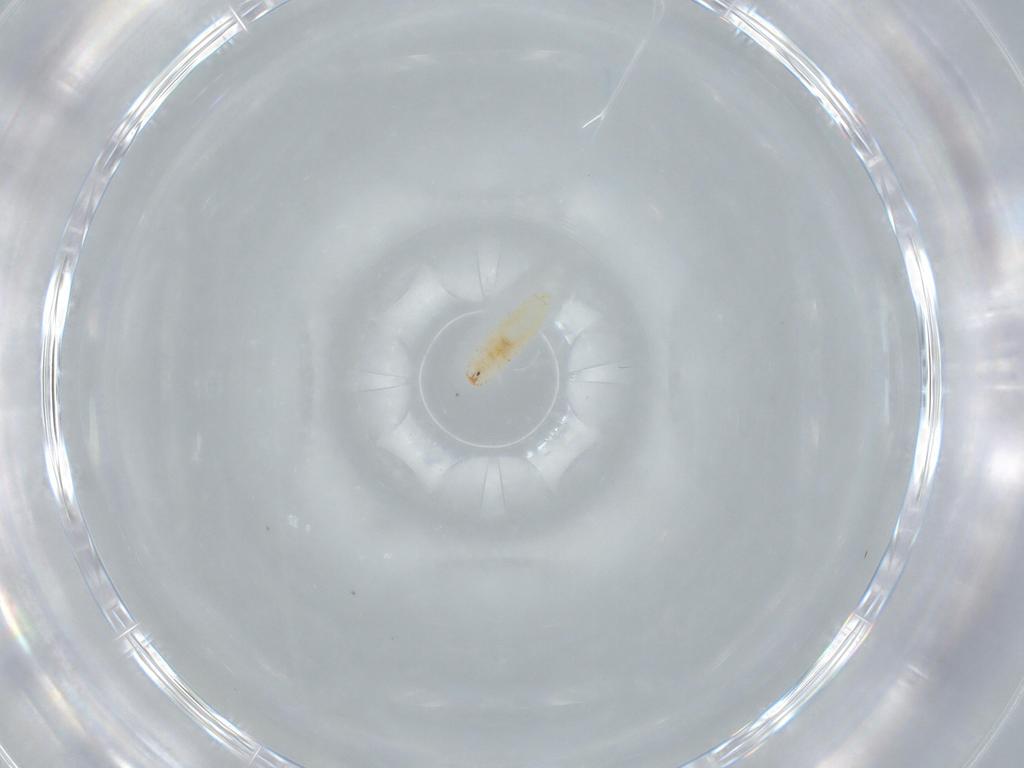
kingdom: Animalia
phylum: Arthropoda
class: Insecta
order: Diptera
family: Cecidomyiidae
